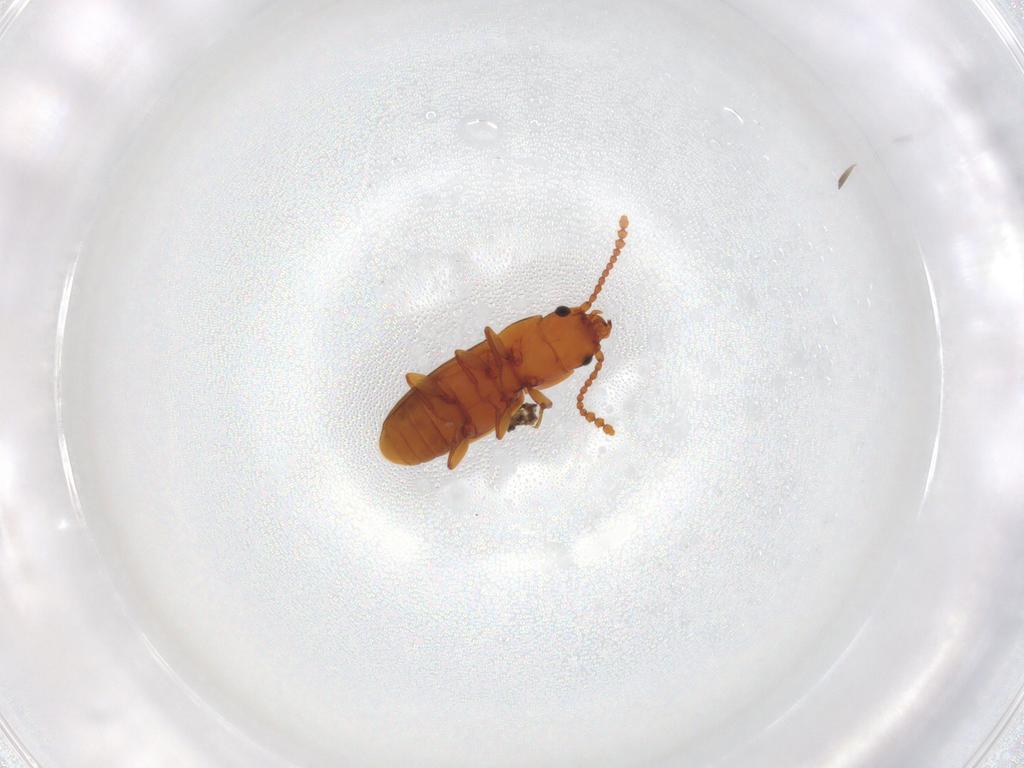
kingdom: Animalia
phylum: Arthropoda
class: Insecta
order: Coleoptera
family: Laemophloeidae
